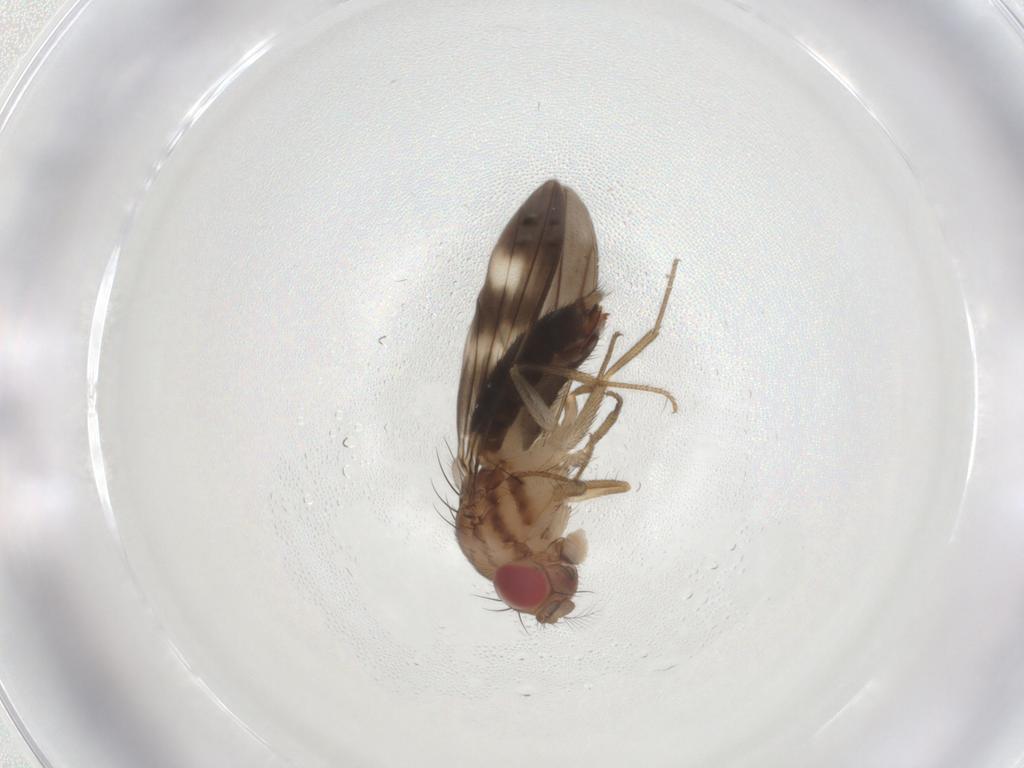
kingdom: Animalia
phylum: Arthropoda
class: Insecta
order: Diptera
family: Drosophilidae
